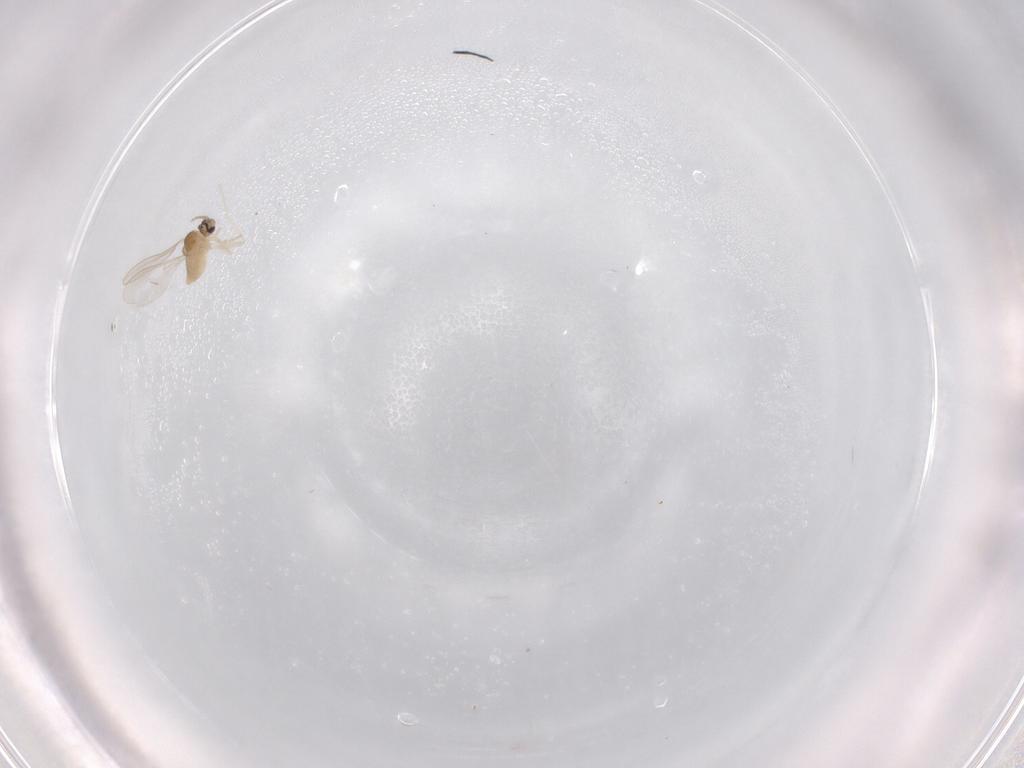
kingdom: Animalia
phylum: Arthropoda
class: Insecta
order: Diptera
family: Cecidomyiidae
